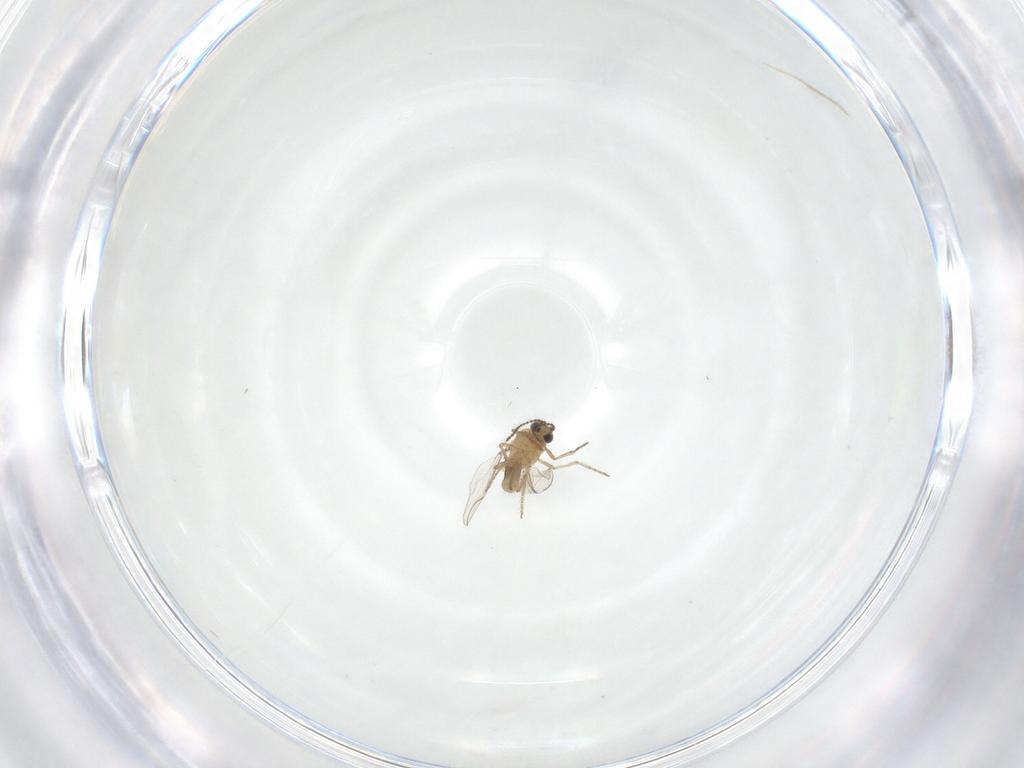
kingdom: Animalia
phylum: Arthropoda
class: Insecta
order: Diptera
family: Ceratopogonidae
